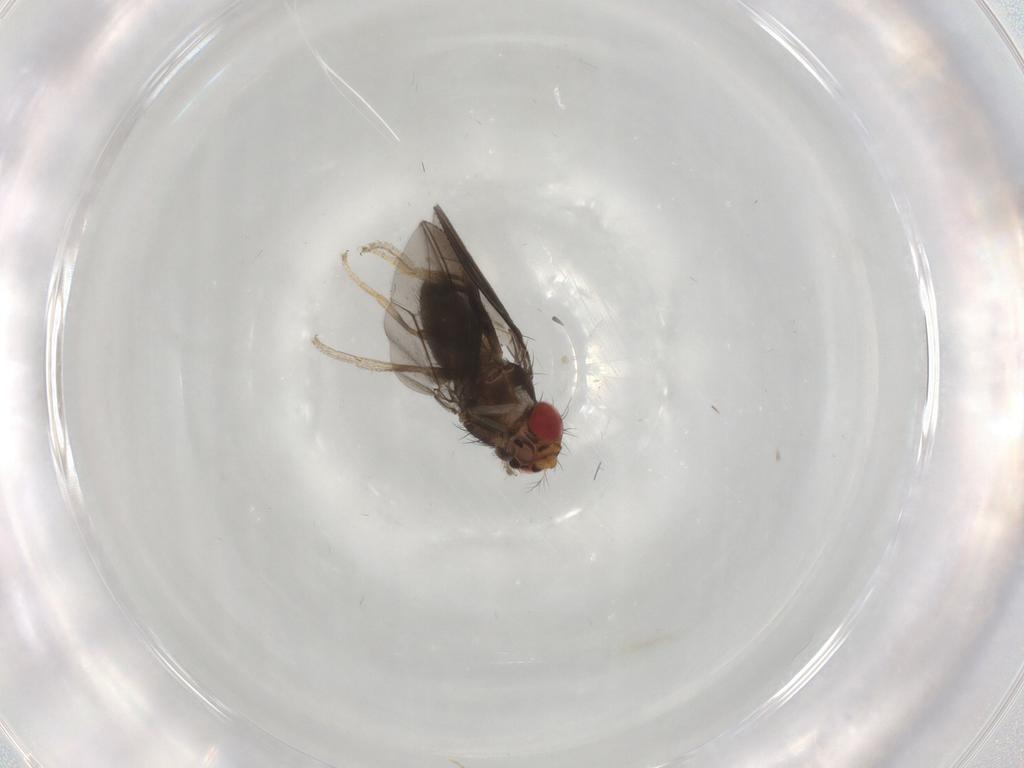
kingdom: Animalia
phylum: Arthropoda
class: Insecta
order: Diptera
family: Drosophilidae
